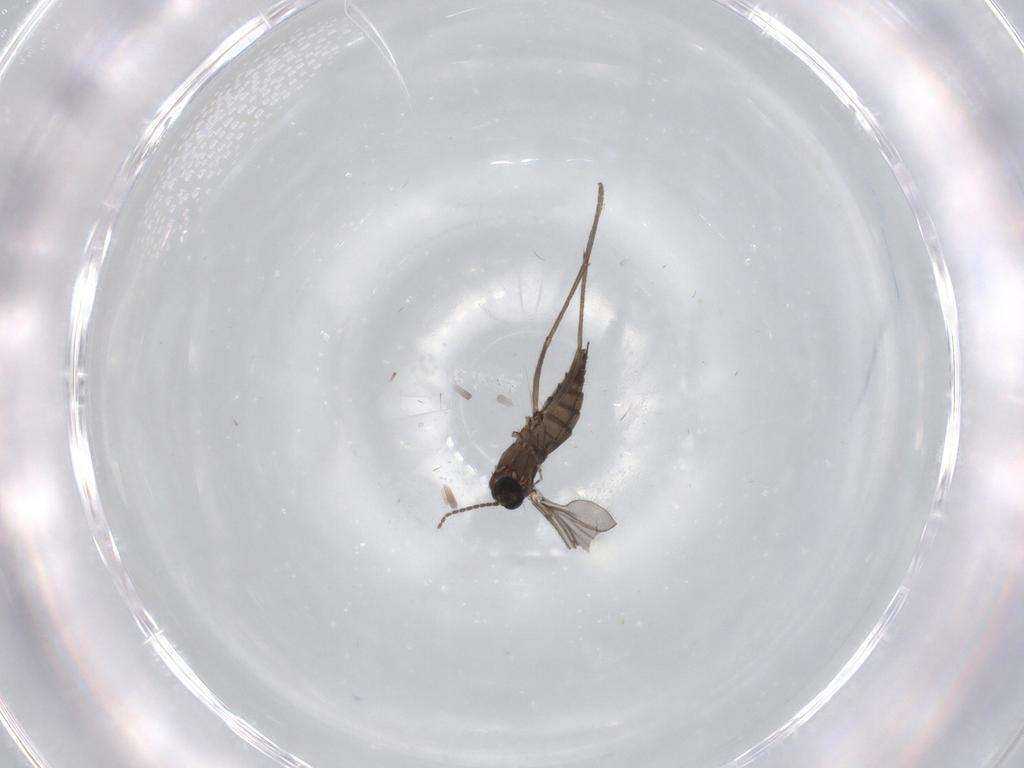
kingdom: Animalia
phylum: Arthropoda
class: Insecta
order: Diptera
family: Sciaridae
